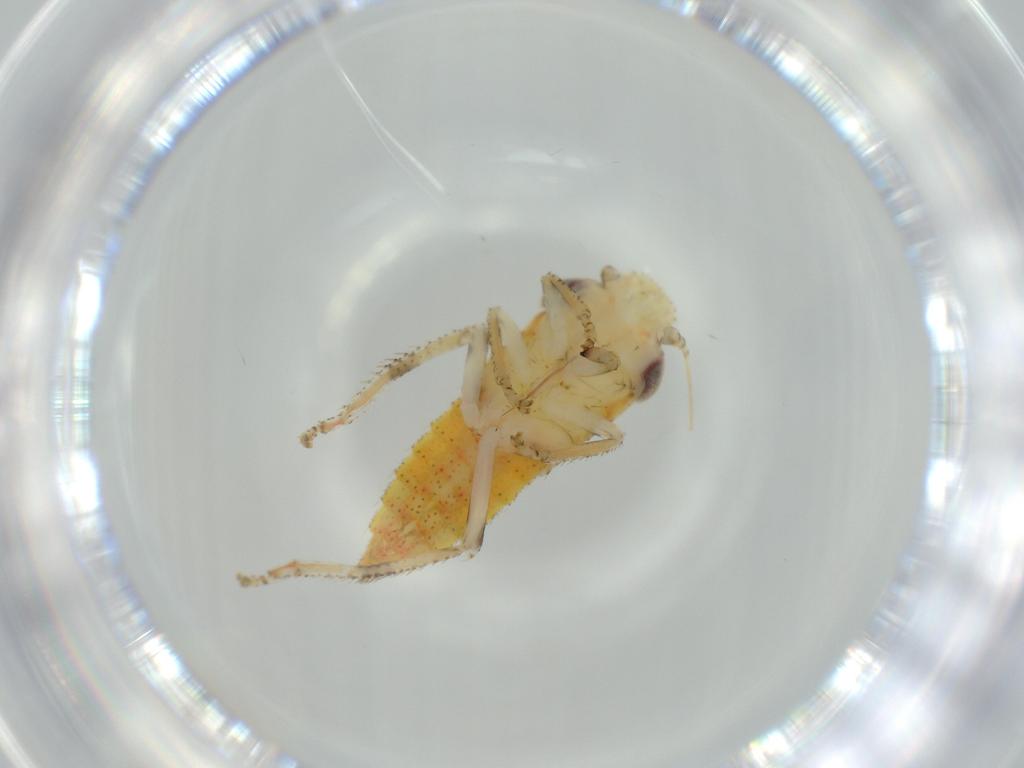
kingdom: Animalia
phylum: Arthropoda
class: Insecta
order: Hemiptera
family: Cicadellidae
